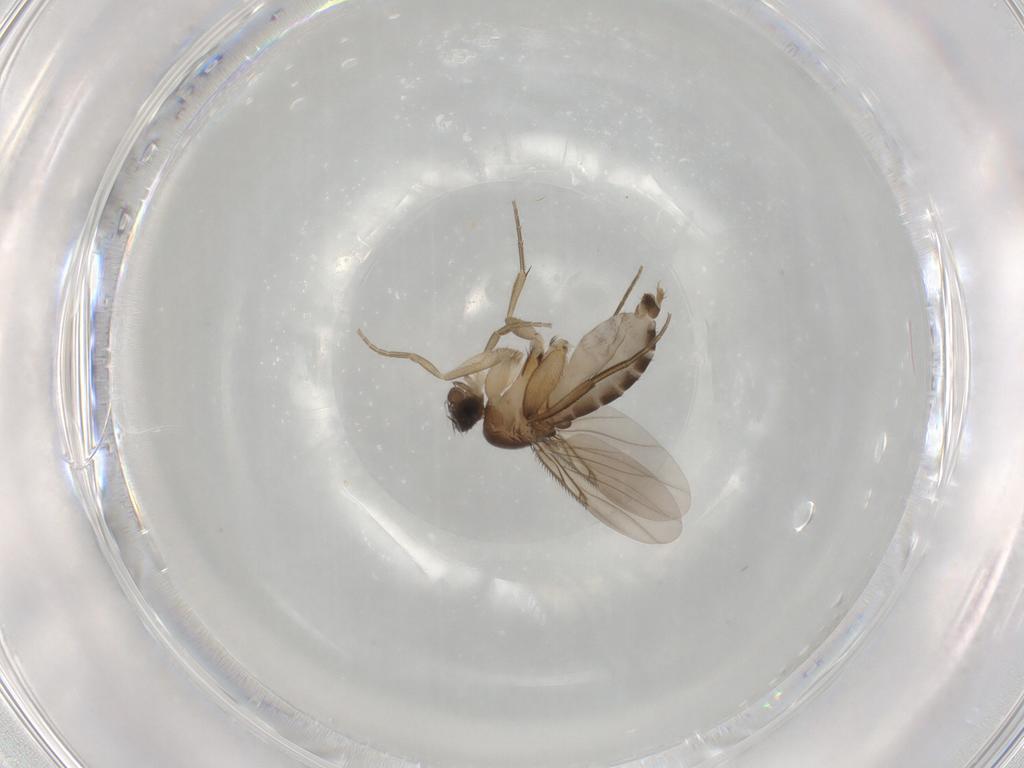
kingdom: Animalia
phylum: Arthropoda
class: Insecta
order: Diptera
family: Phoridae
